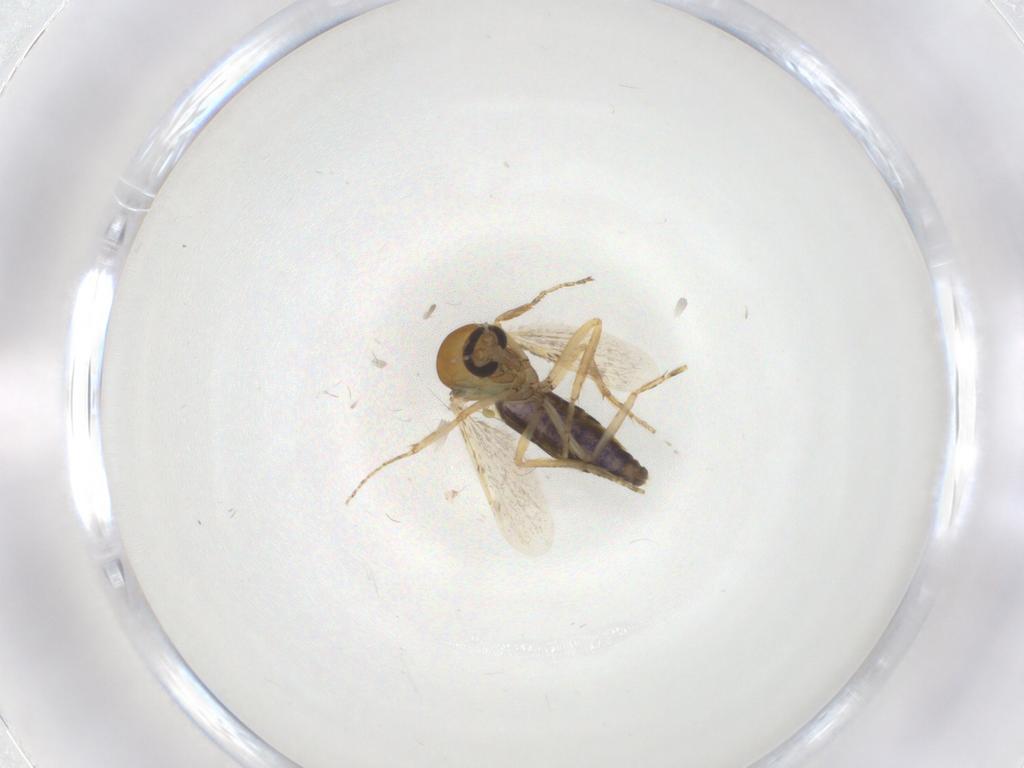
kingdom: Animalia
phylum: Arthropoda
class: Insecta
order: Diptera
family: Ceratopogonidae
